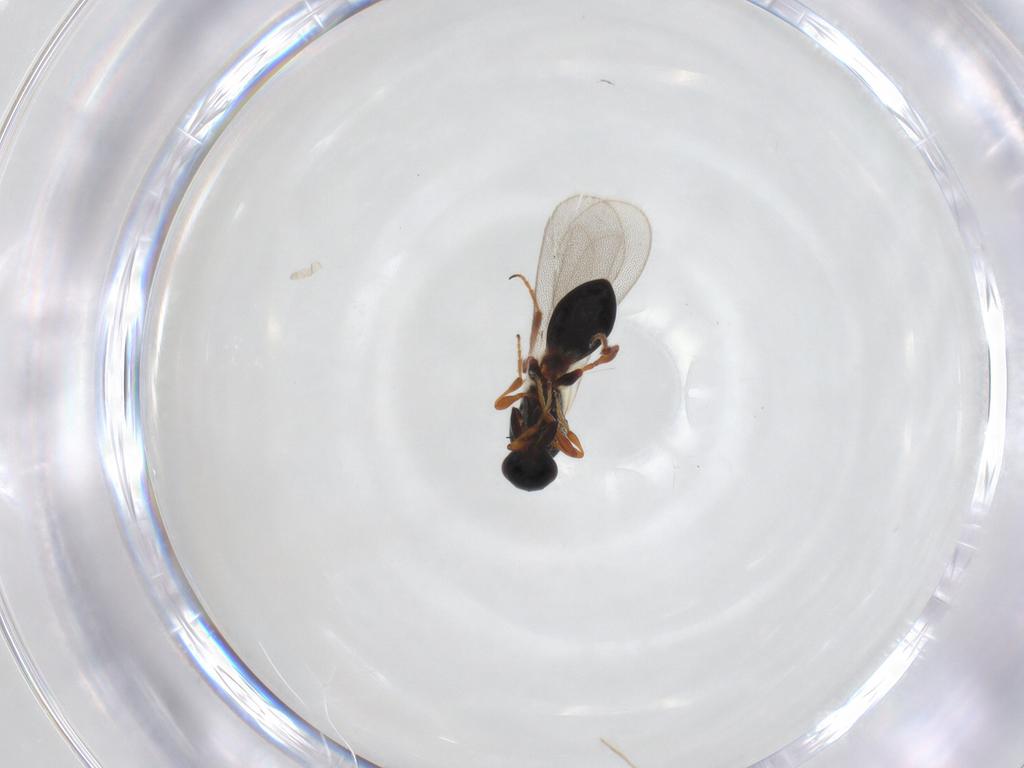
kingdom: Animalia
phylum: Arthropoda
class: Insecta
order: Hymenoptera
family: Platygastridae
